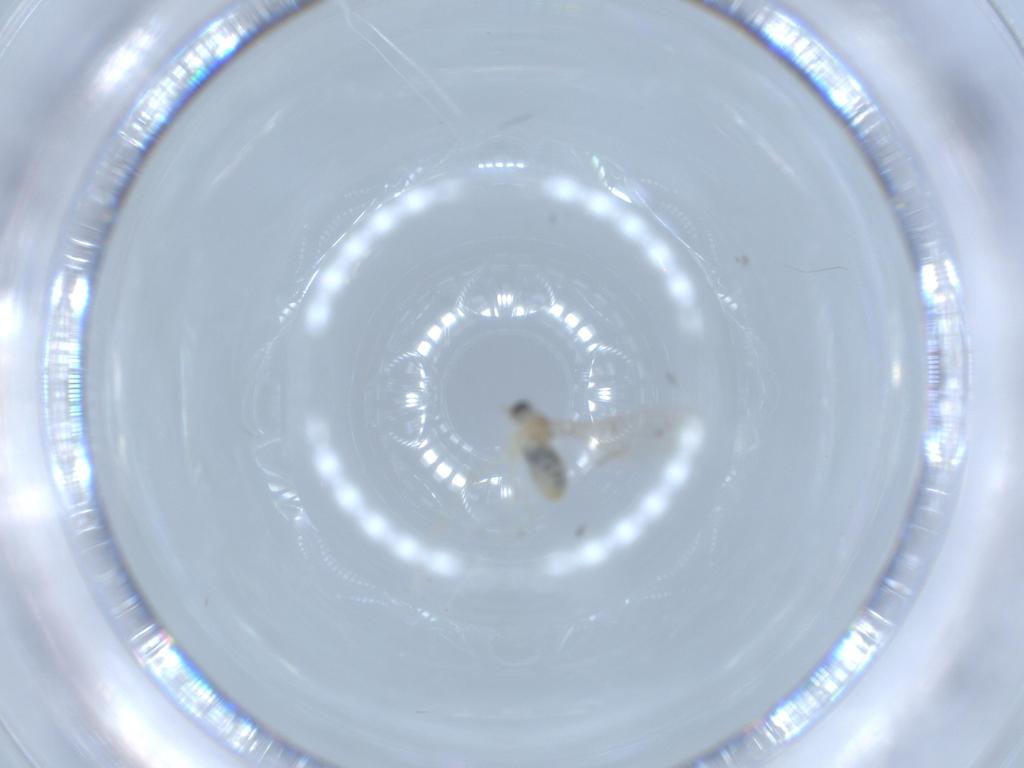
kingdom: Animalia
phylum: Arthropoda
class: Insecta
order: Diptera
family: Cecidomyiidae
